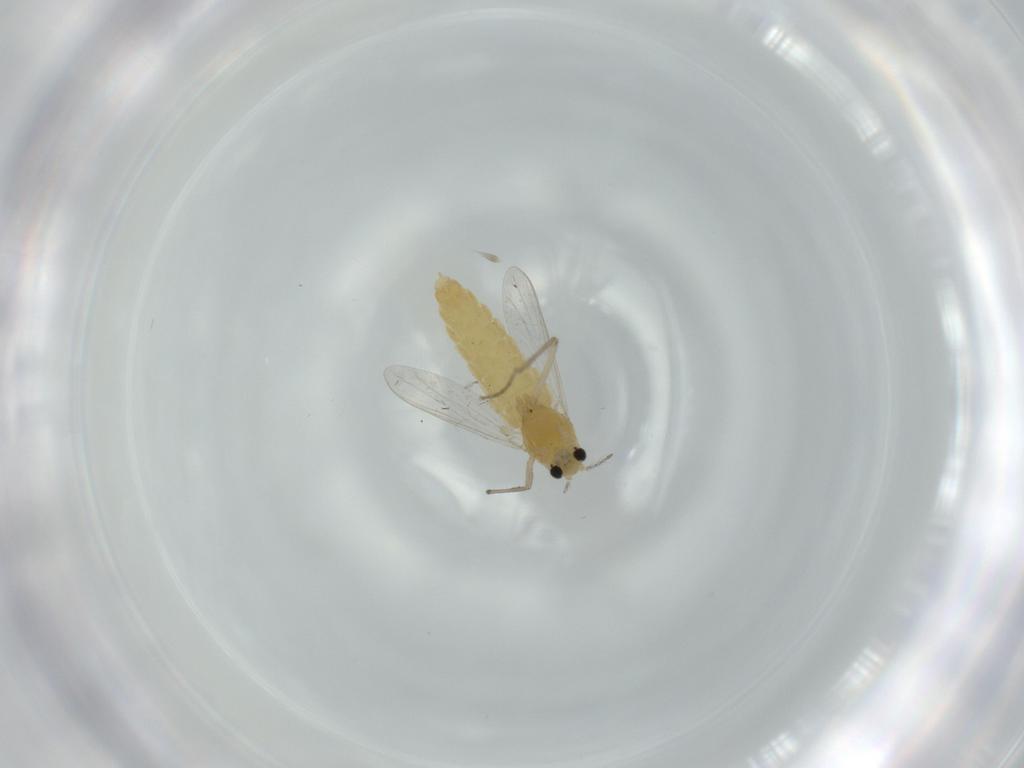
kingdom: Animalia
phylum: Arthropoda
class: Insecta
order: Diptera
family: Chironomidae
